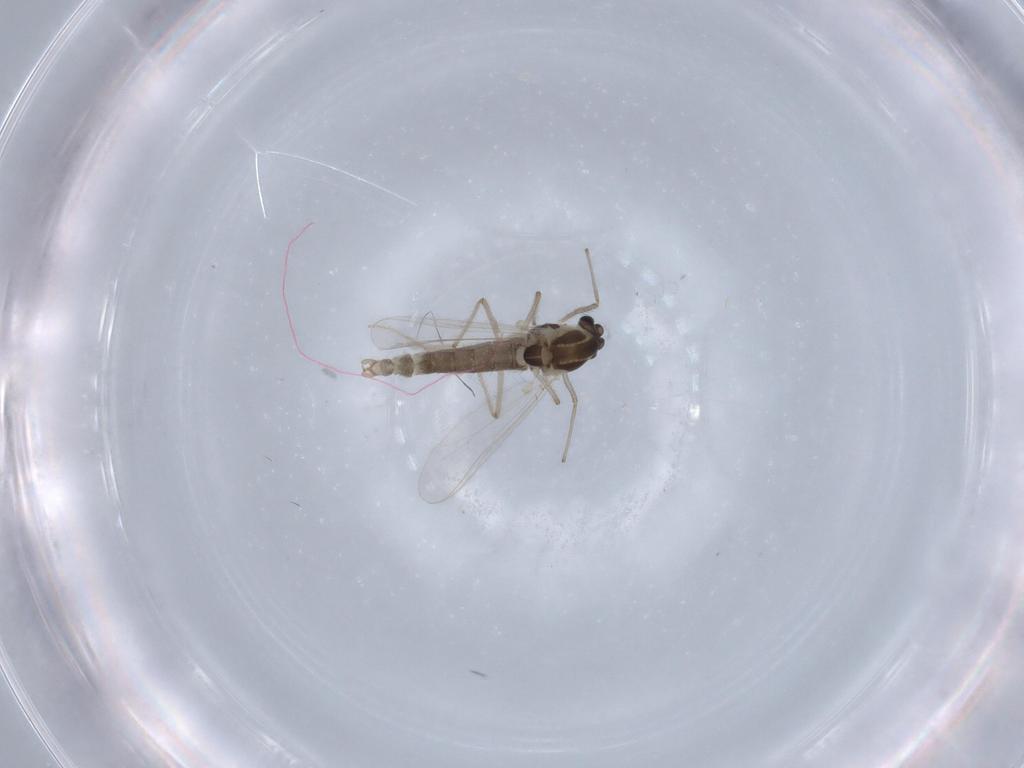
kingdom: Animalia
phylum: Arthropoda
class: Insecta
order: Diptera
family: Sciaridae
